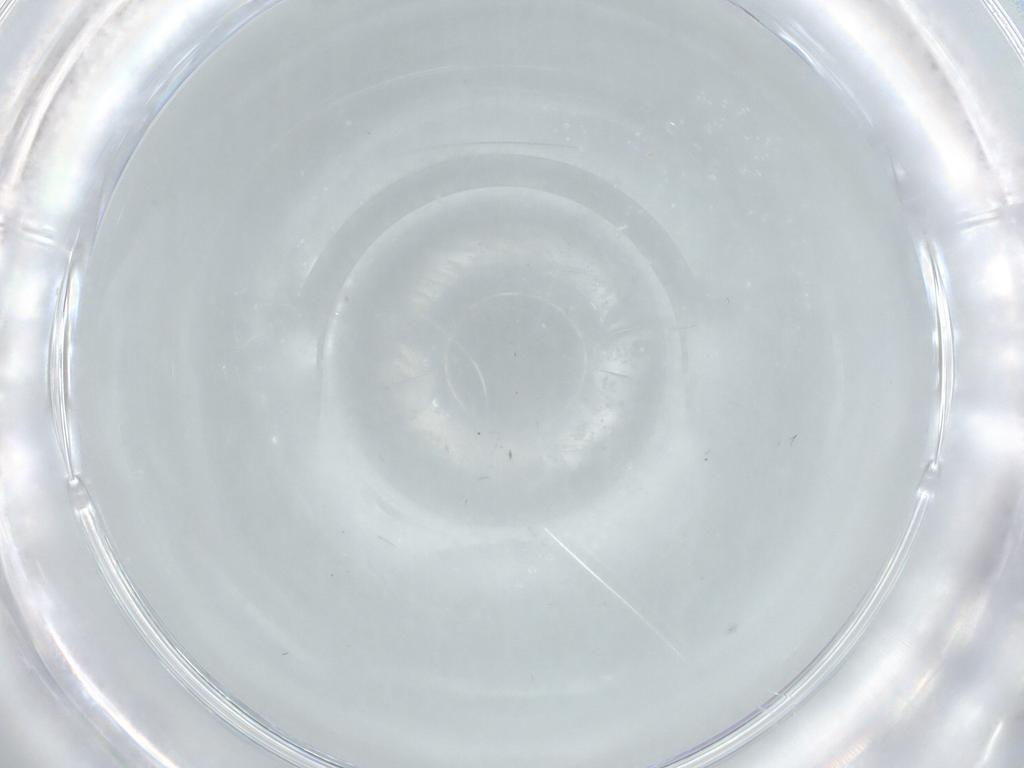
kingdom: Animalia
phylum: Arthropoda
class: Insecta
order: Diptera
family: Cecidomyiidae
